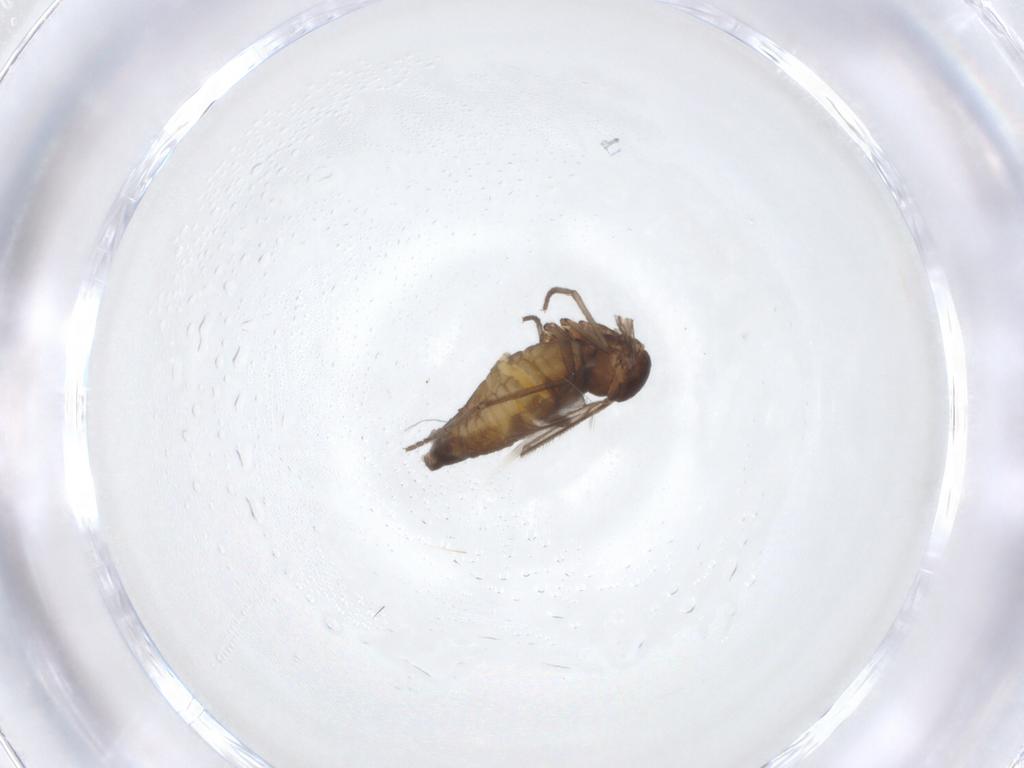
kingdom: Animalia
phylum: Arthropoda
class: Insecta
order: Diptera
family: Sciaridae
